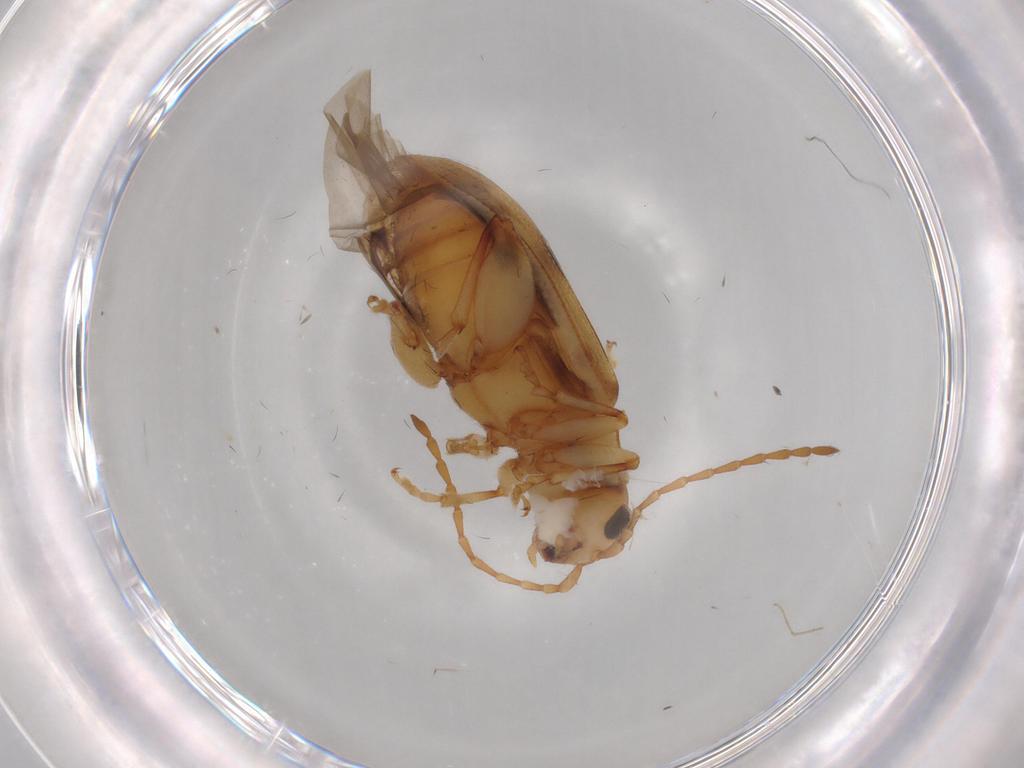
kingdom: Animalia
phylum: Arthropoda
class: Insecta
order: Coleoptera
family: Chrysomelidae
